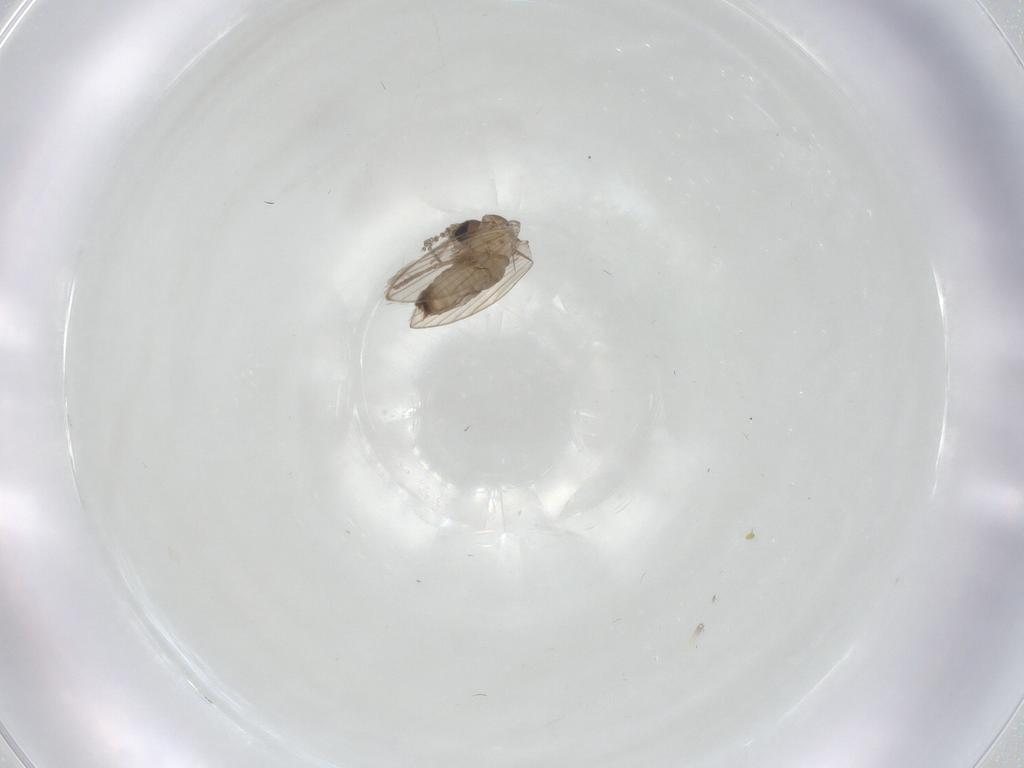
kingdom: Animalia
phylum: Arthropoda
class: Insecta
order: Diptera
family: Psychodidae
